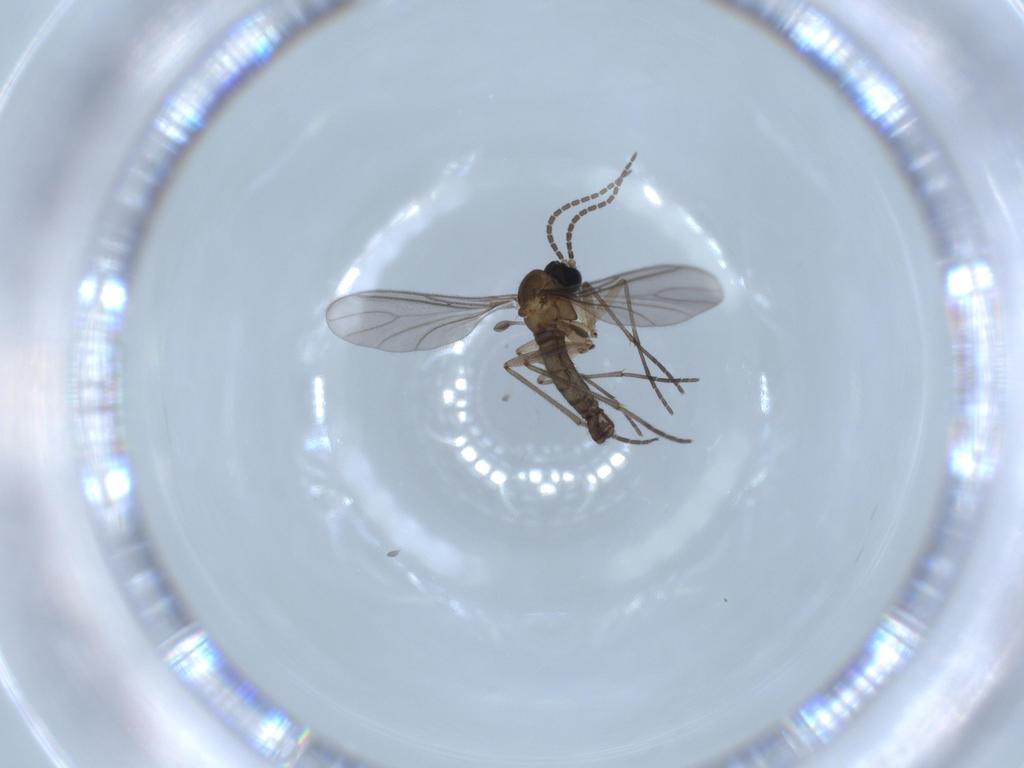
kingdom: Animalia
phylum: Arthropoda
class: Insecta
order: Diptera
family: Sciaridae
